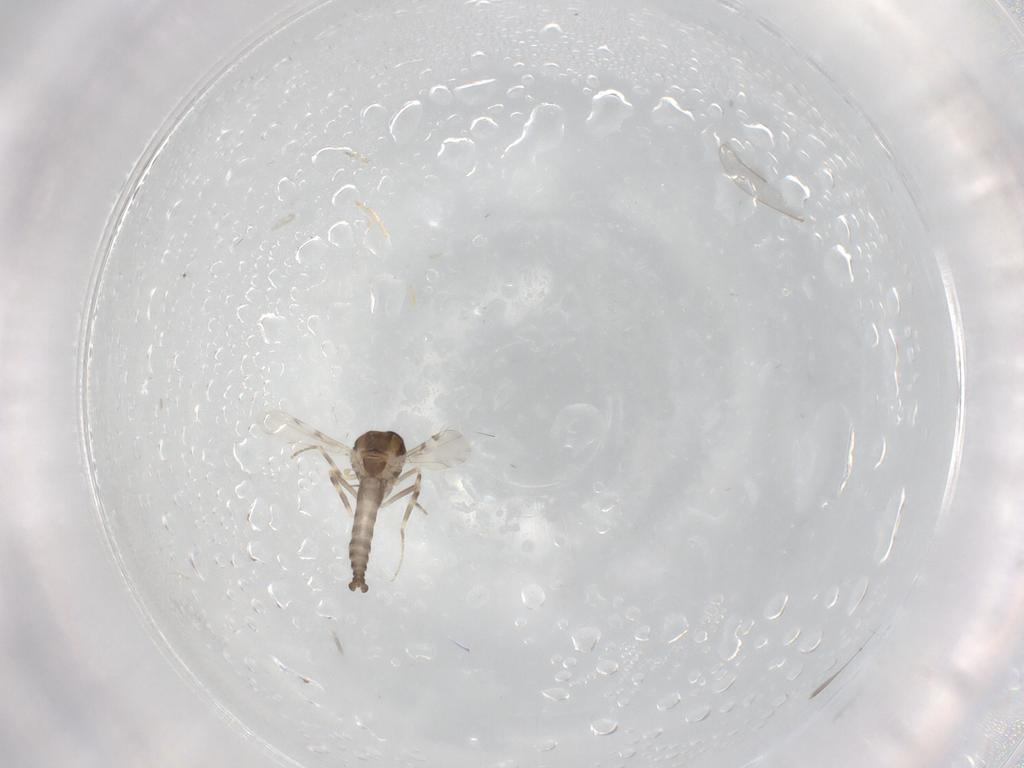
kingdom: Animalia
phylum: Arthropoda
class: Insecta
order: Diptera
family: Ceratopogonidae
